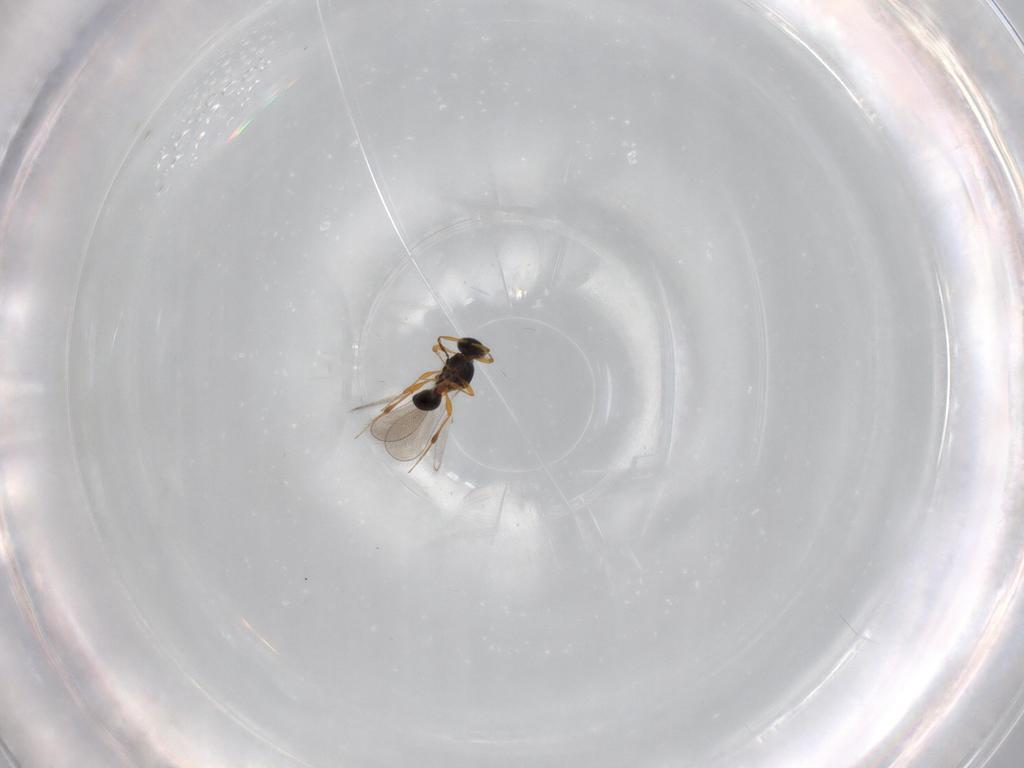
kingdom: Animalia
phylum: Arthropoda
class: Insecta
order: Hymenoptera
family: Platygastridae
